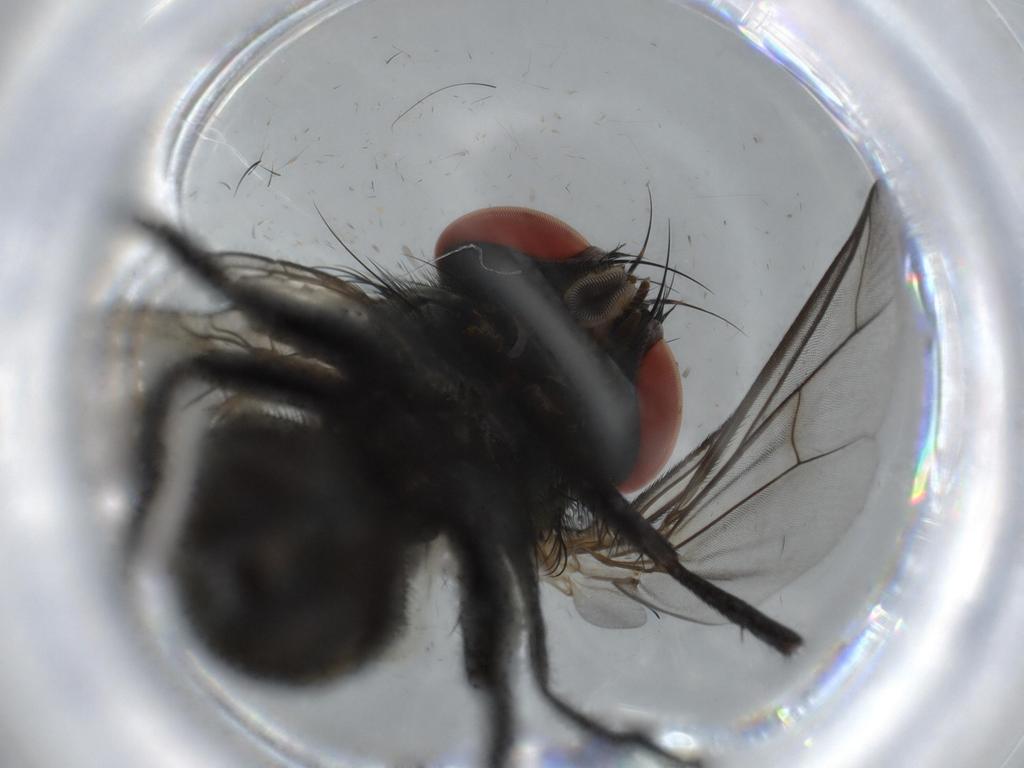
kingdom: Animalia
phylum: Arthropoda
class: Insecta
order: Diptera
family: Psychodidae
